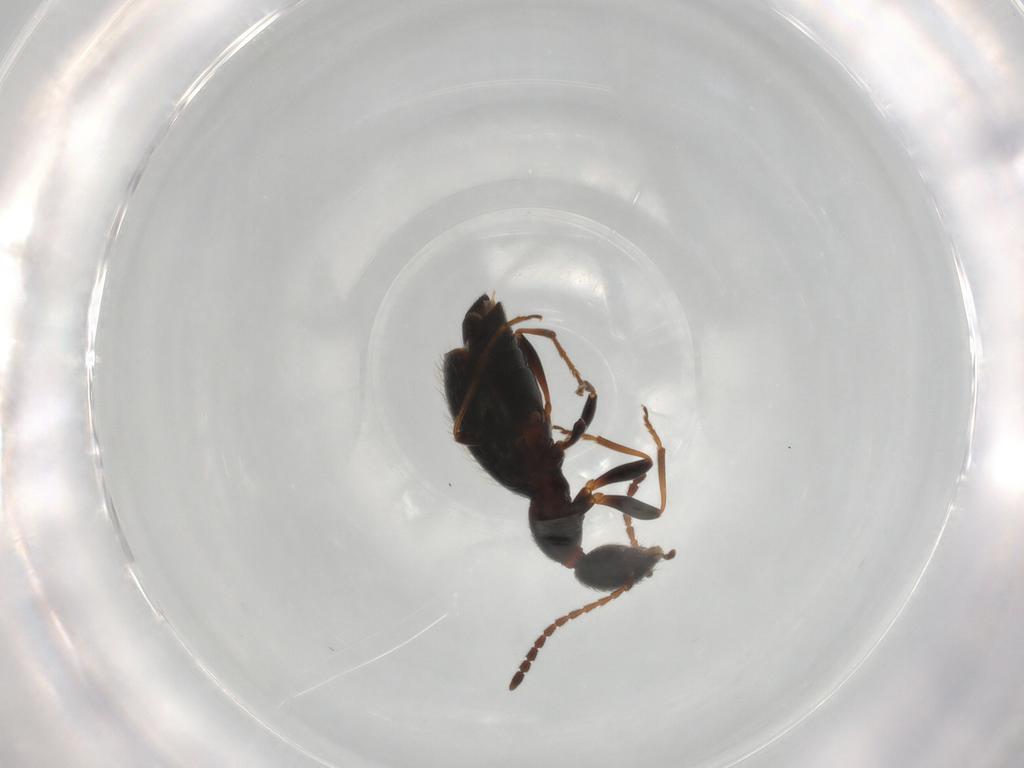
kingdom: Animalia
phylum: Arthropoda
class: Insecta
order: Coleoptera
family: Anthicidae
